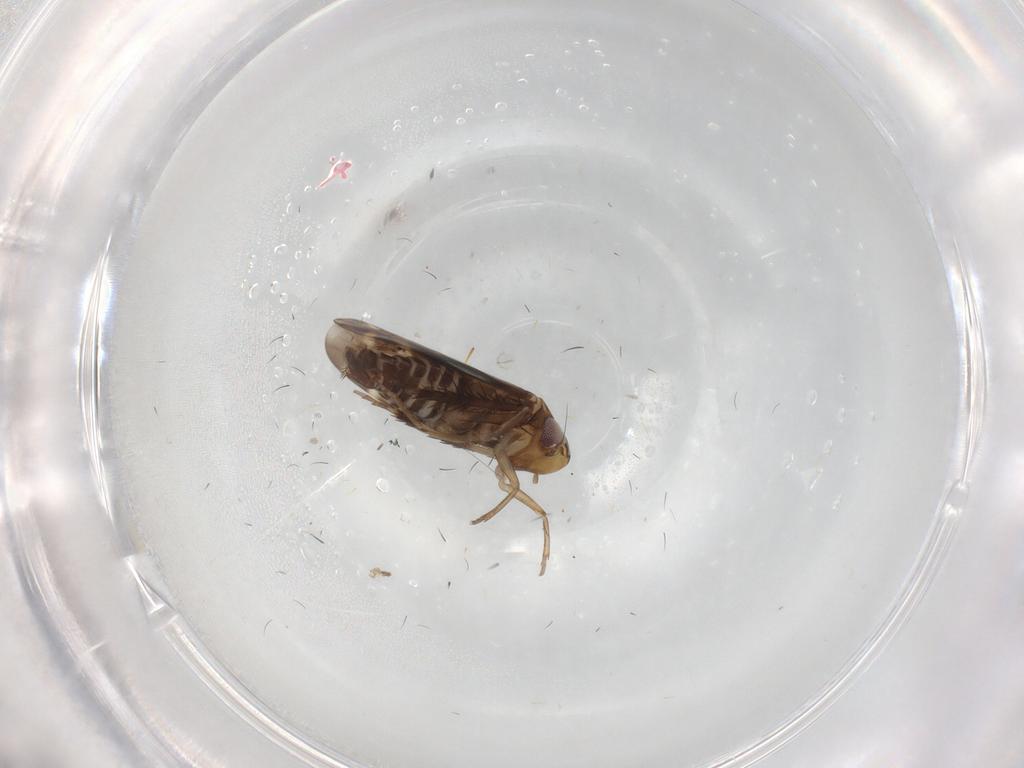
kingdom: Animalia
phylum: Arthropoda
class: Insecta
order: Hemiptera
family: Cicadellidae
